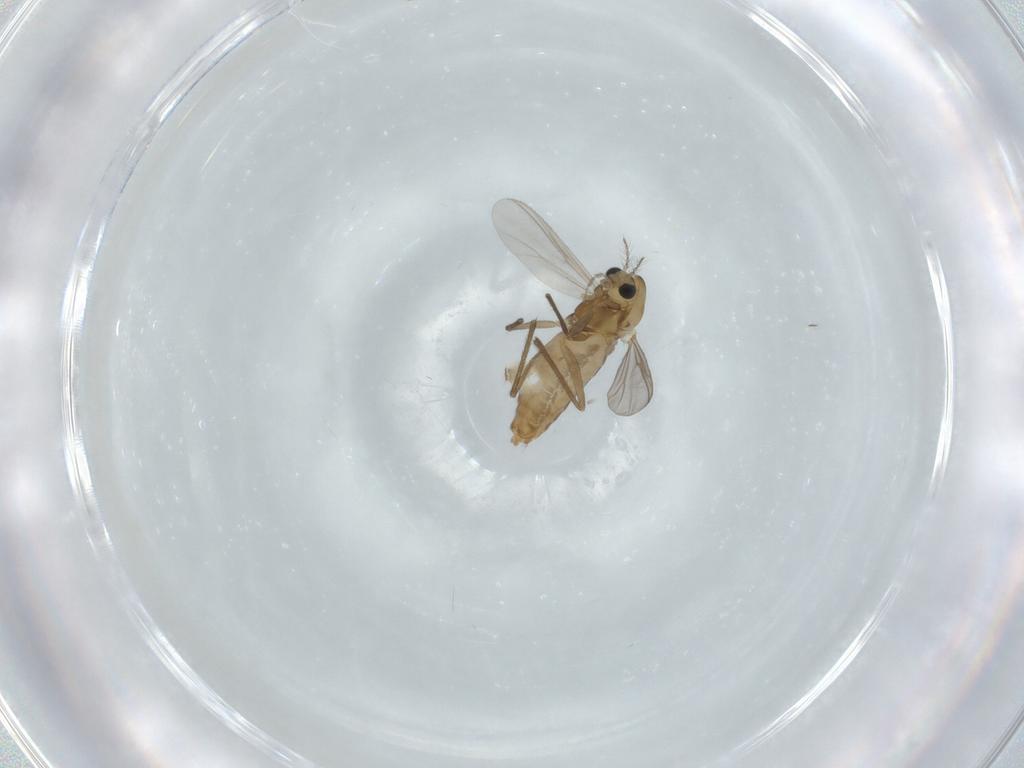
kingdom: Animalia
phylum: Arthropoda
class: Insecta
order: Diptera
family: Chironomidae
